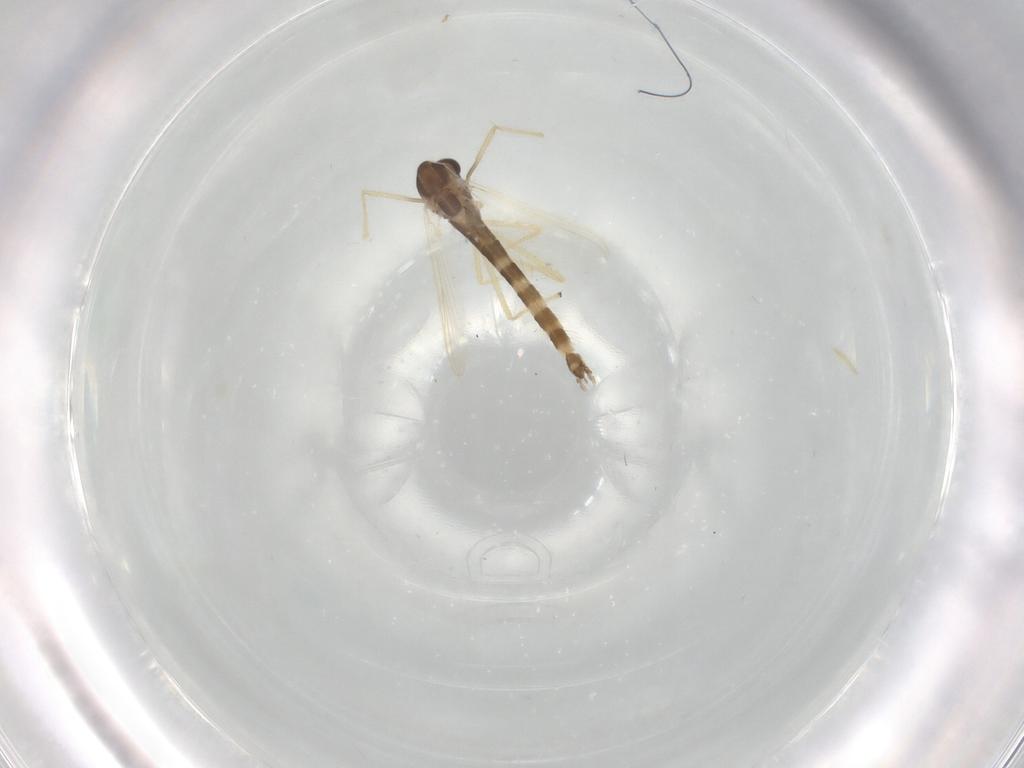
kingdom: Animalia
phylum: Arthropoda
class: Insecta
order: Diptera
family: Chironomidae
